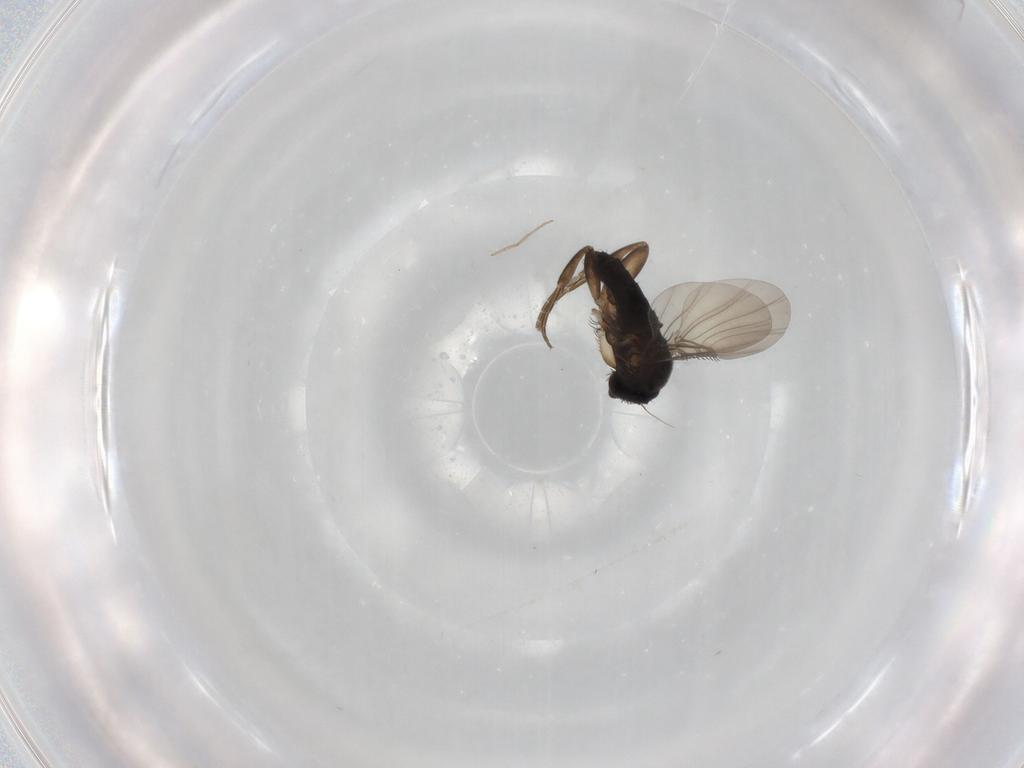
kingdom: Animalia
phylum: Arthropoda
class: Insecta
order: Diptera
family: Phoridae
